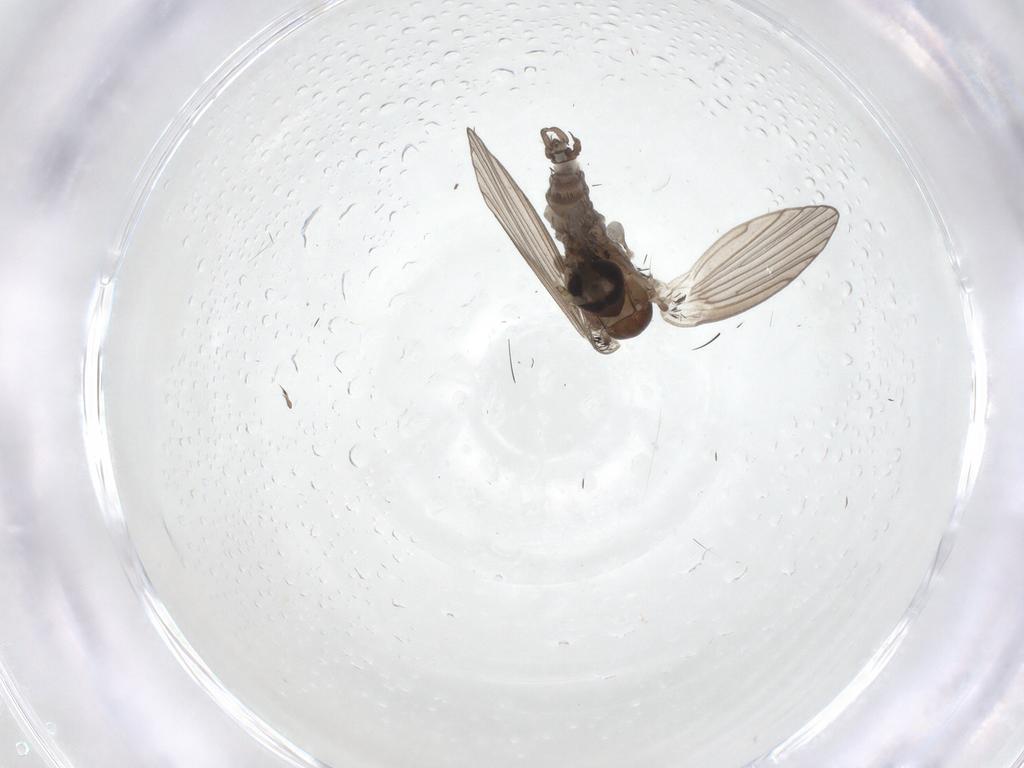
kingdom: Animalia
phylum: Arthropoda
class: Insecta
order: Diptera
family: Cecidomyiidae
